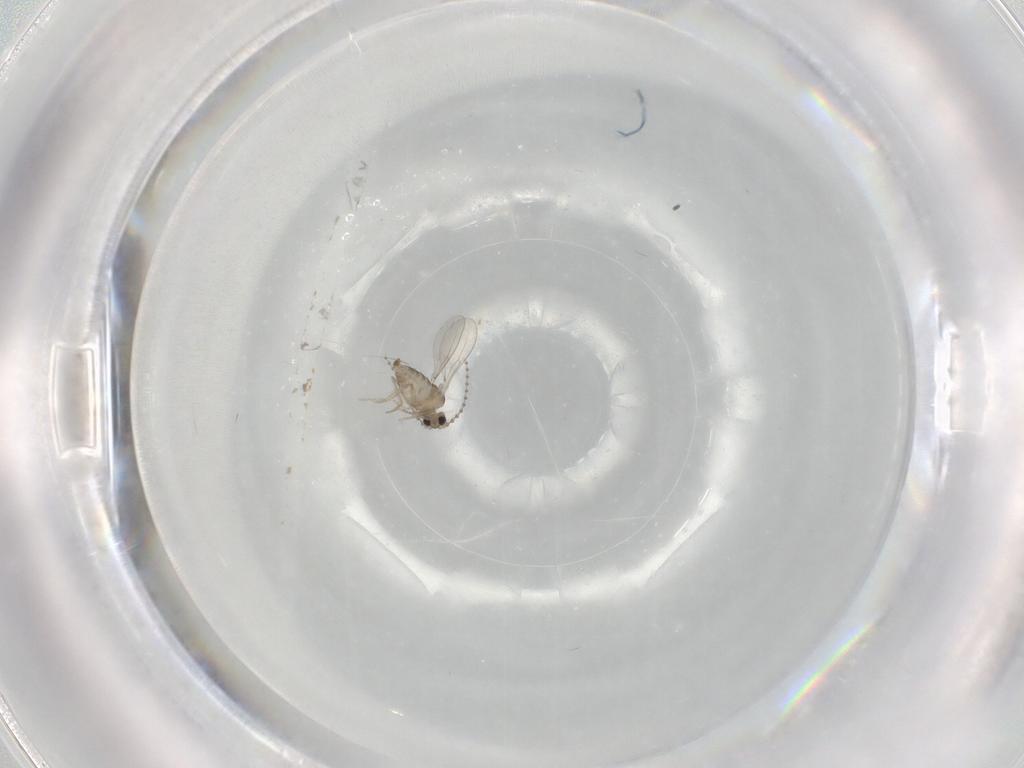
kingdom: Animalia
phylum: Arthropoda
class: Insecta
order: Diptera
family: Cecidomyiidae
